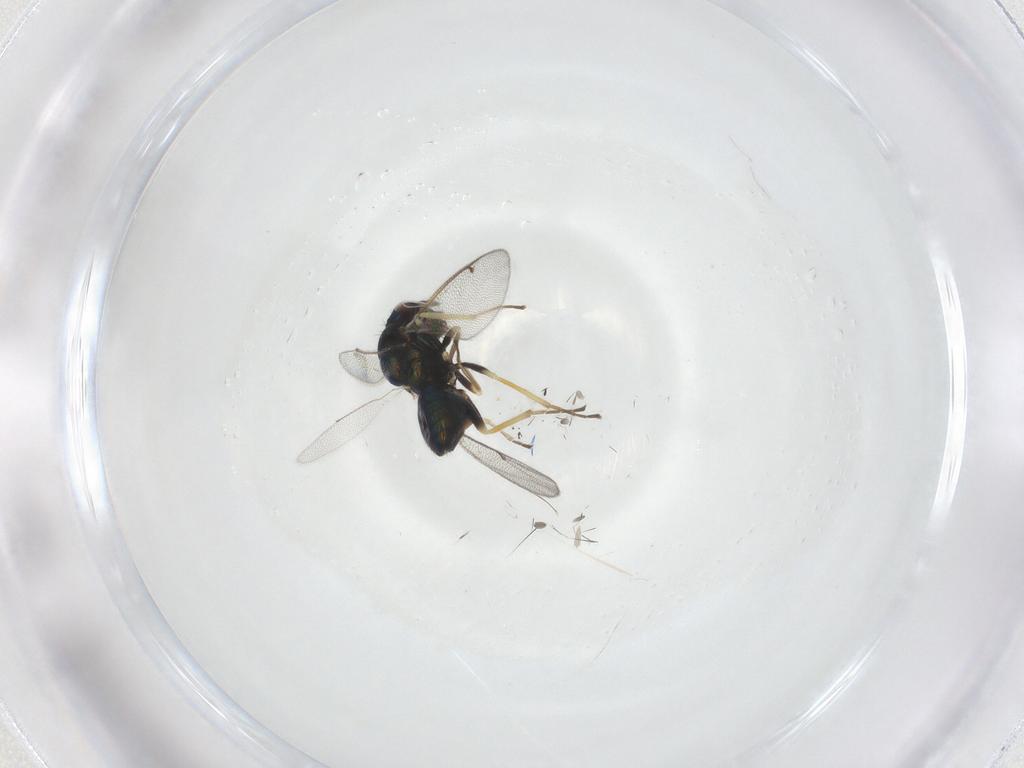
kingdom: Animalia
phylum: Arthropoda
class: Insecta
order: Hymenoptera
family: Eulophidae
